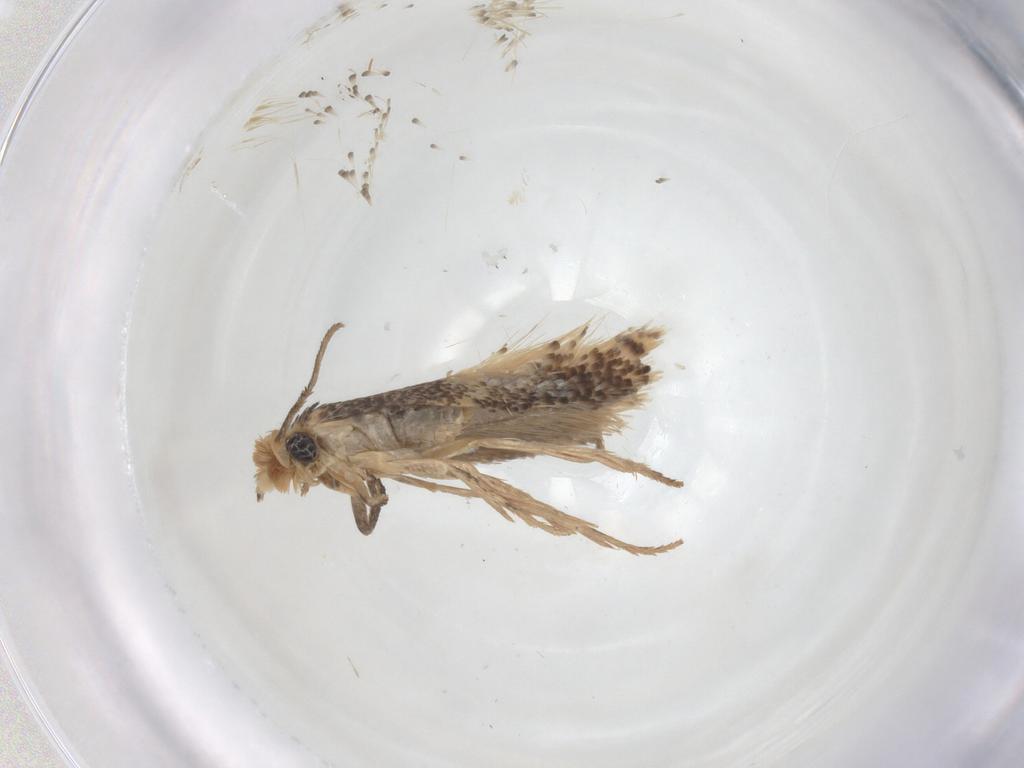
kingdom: Animalia
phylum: Arthropoda
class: Insecta
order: Lepidoptera
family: Nepticulidae
